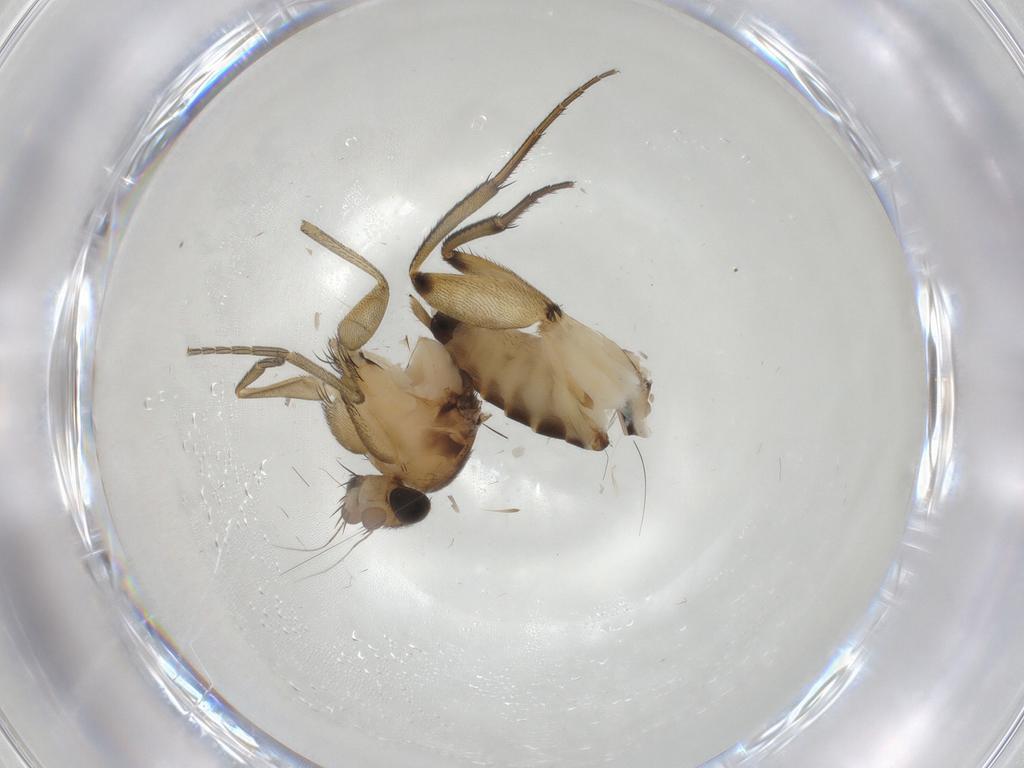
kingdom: Animalia
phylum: Arthropoda
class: Insecta
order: Diptera
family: Phoridae
